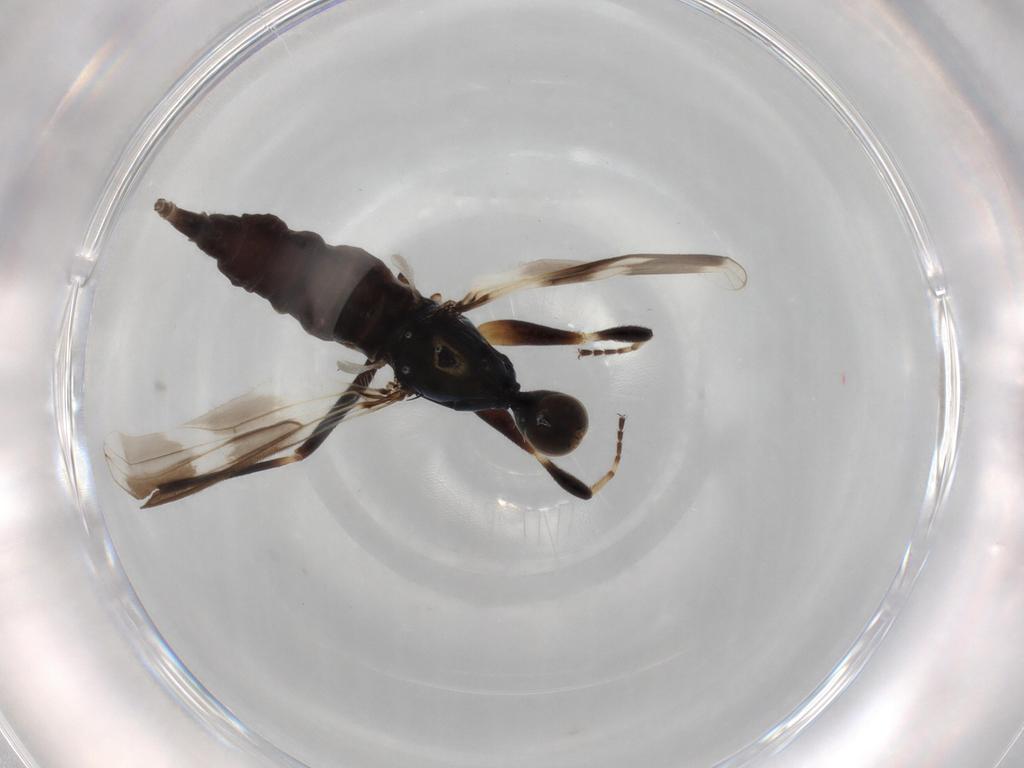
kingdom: Animalia
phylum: Arthropoda
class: Insecta
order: Diptera
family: Hybotidae
